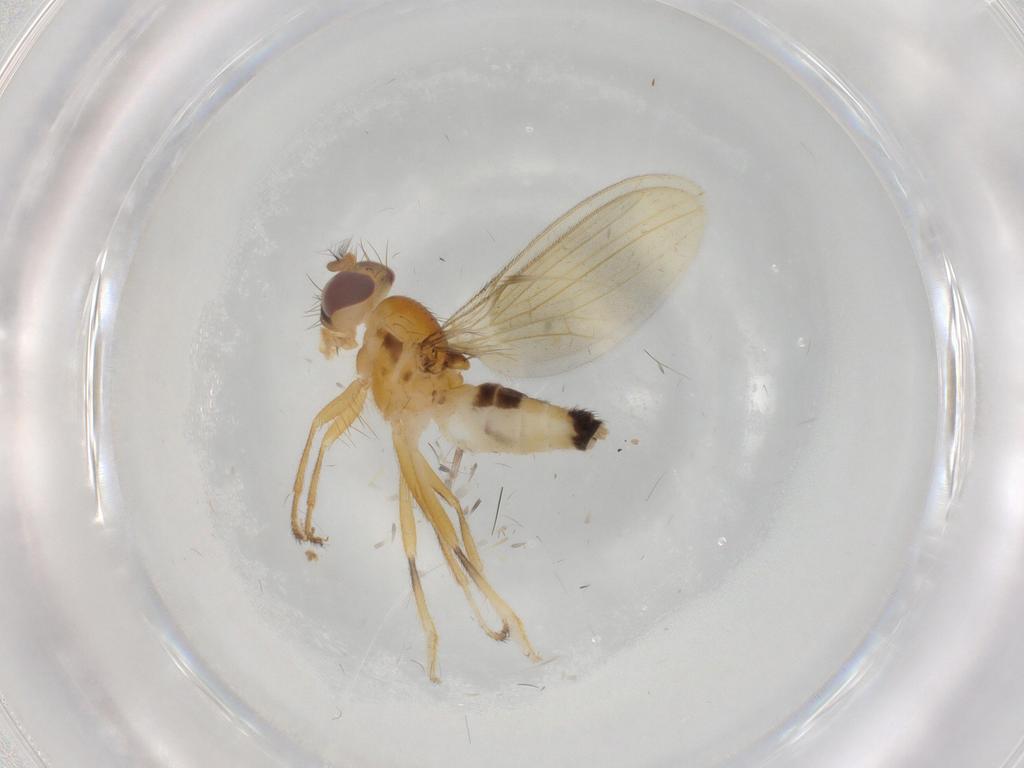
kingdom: Animalia
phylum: Arthropoda
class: Insecta
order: Diptera
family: Periscelididae
